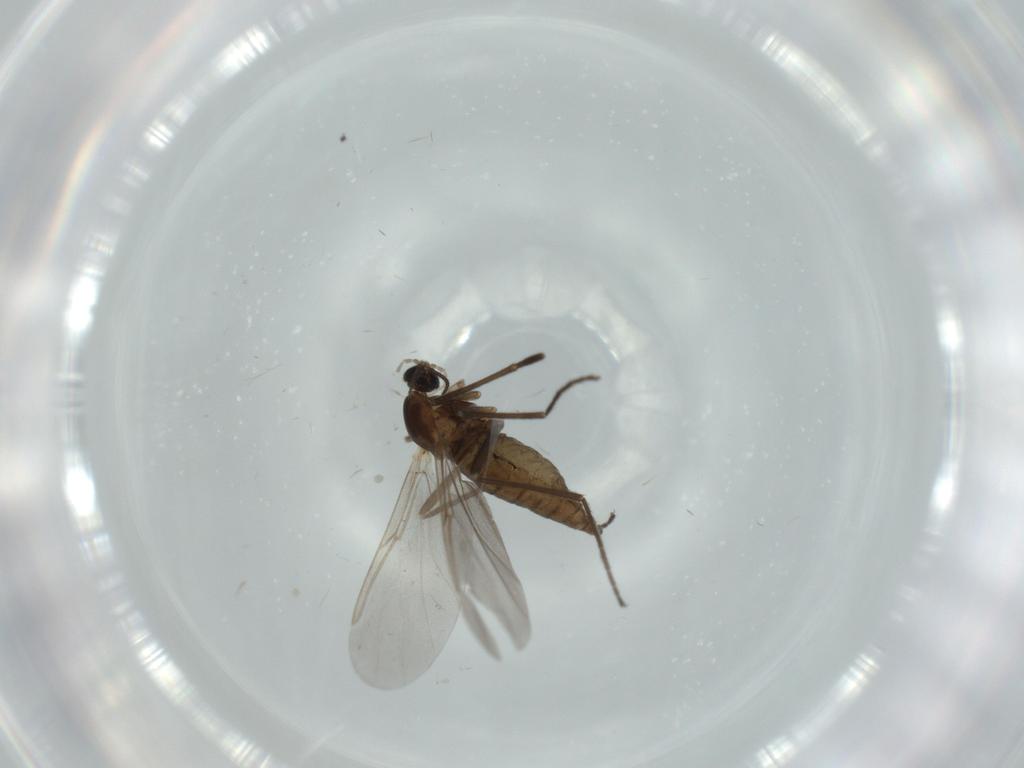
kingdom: Animalia
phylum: Arthropoda
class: Insecta
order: Diptera
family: Cecidomyiidae
